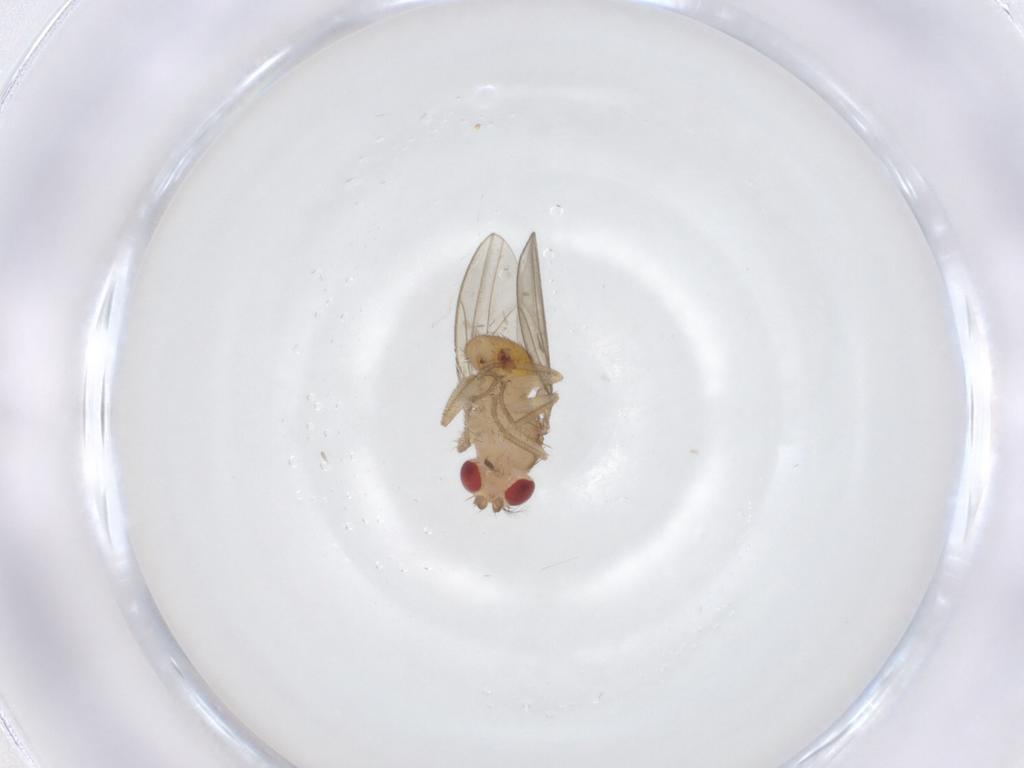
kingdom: Animalia
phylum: Arthropoda
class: Insecta
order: Diptera
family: Drosophilidae
